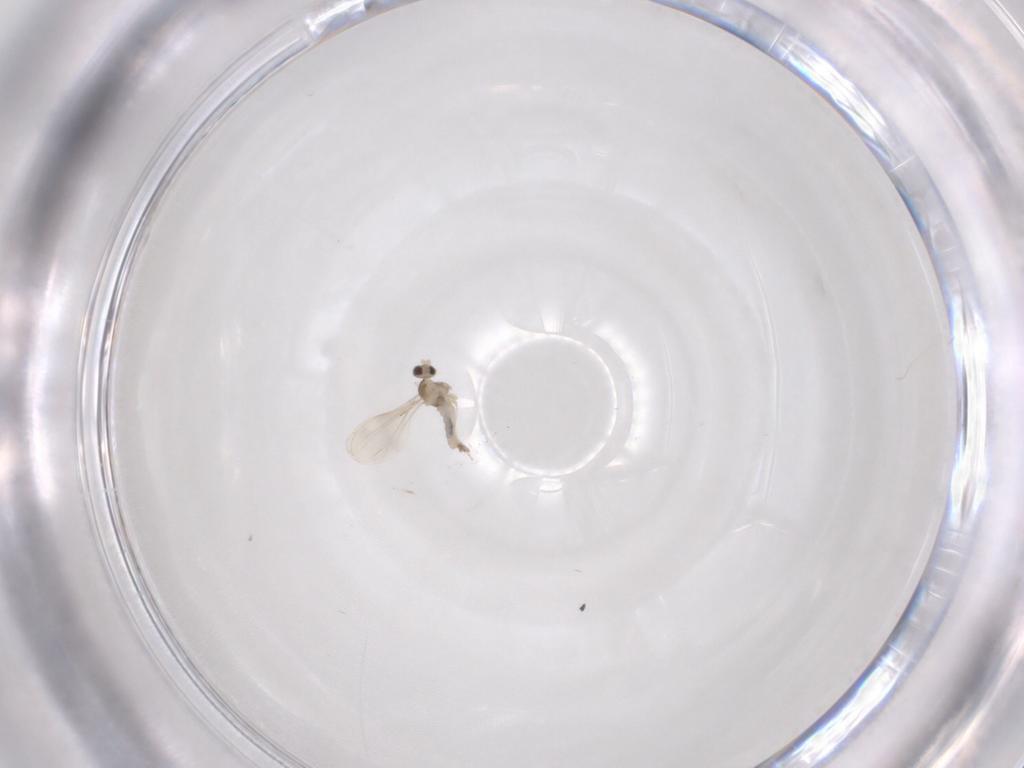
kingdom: Animalia
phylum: Arthropoda
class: Insecta
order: Diptera
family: Cecidomyiidae
